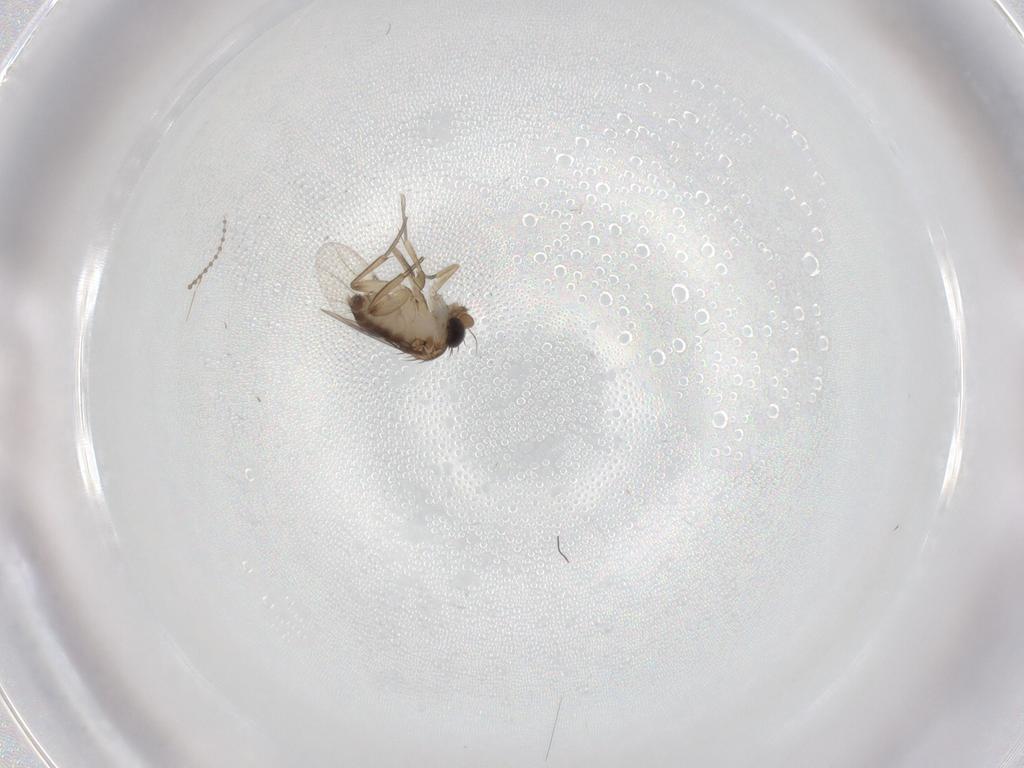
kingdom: Animalia
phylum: Arthropoda
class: Insecta
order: Diptera
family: Phoridae
